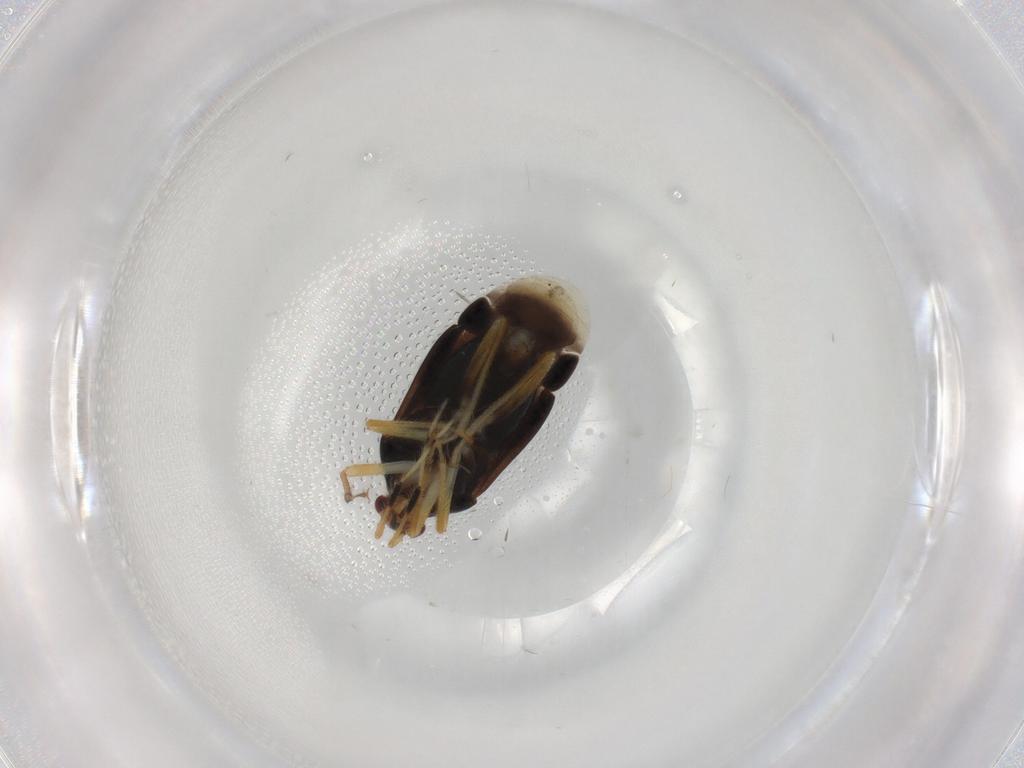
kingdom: Animalia
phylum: Arthropoda
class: Insecta
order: Hemiptera
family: Miridae
